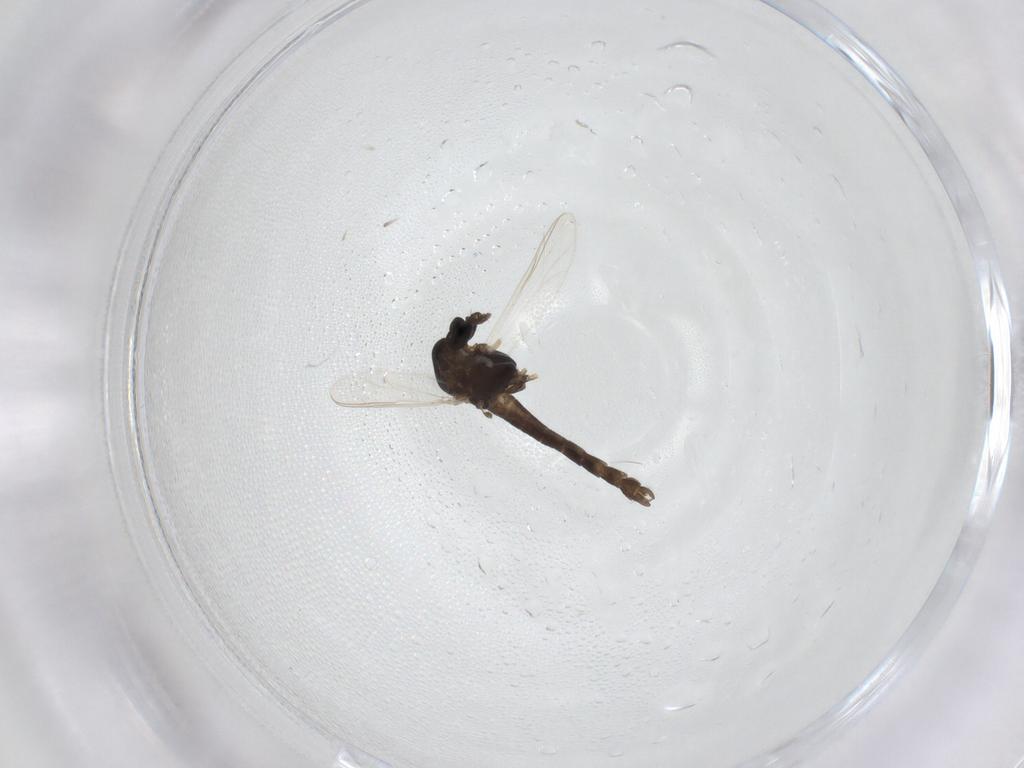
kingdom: Animalia
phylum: Arthropoda
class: Insecta
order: Diptera
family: Chironomidae
